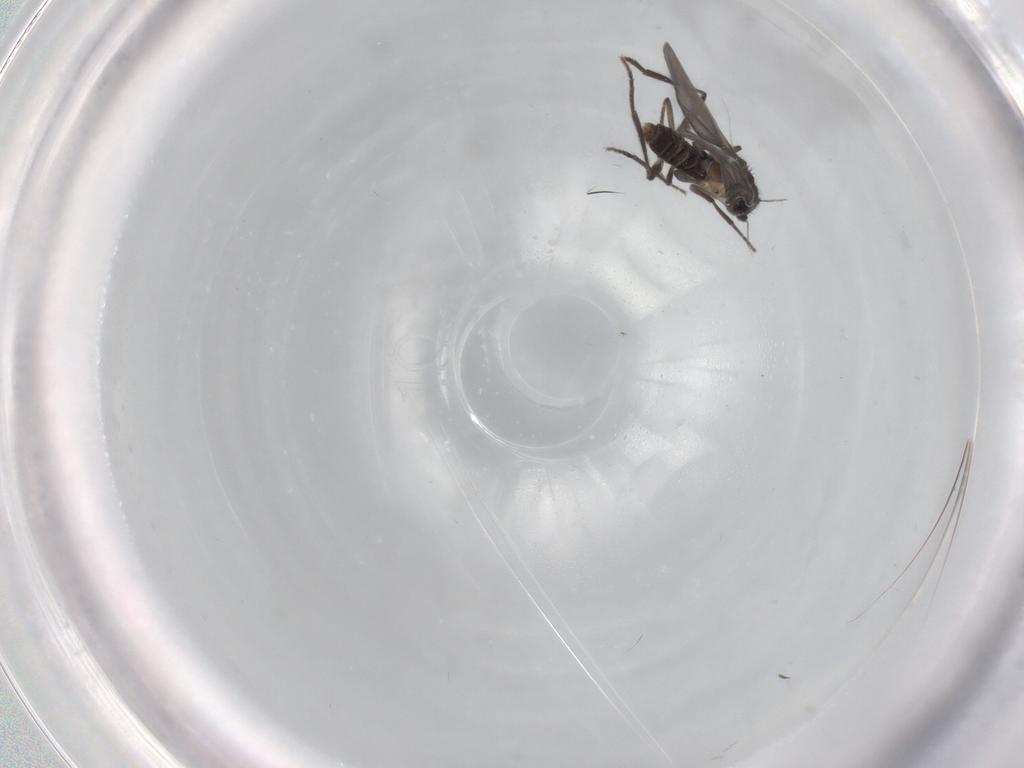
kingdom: Animalia
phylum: Arthropoda
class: Insecta
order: Diptera
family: Phoridae
